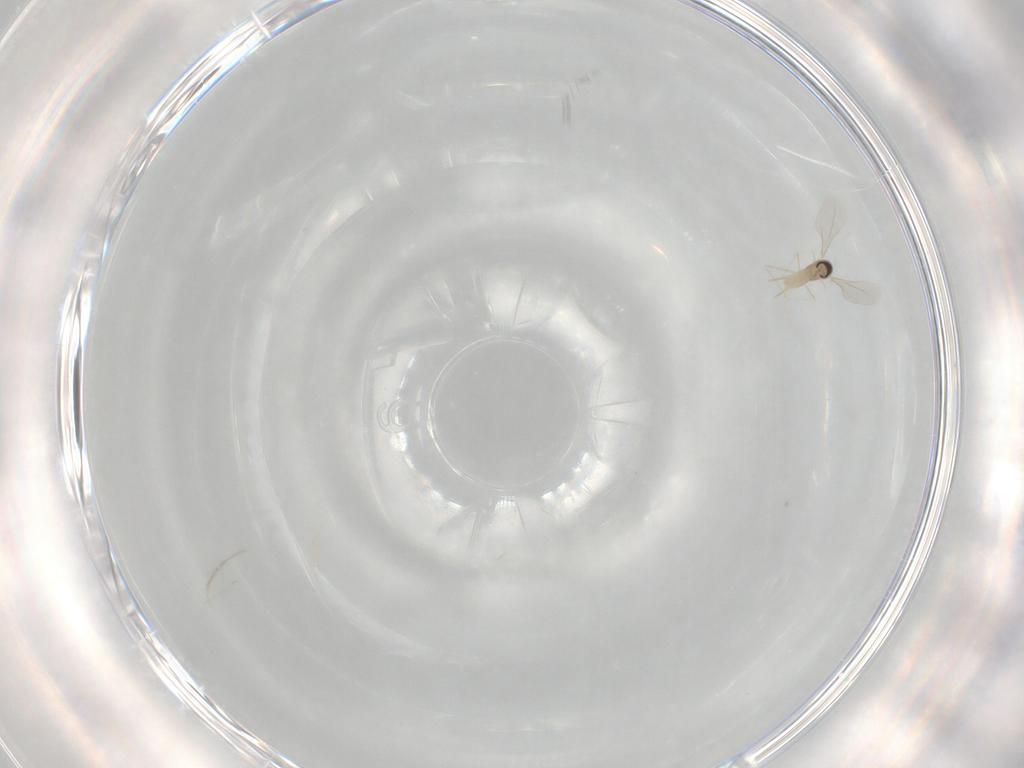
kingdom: Animalia
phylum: Arthropoda
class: Insecta
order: Diptera
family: Cecidomyiidae
